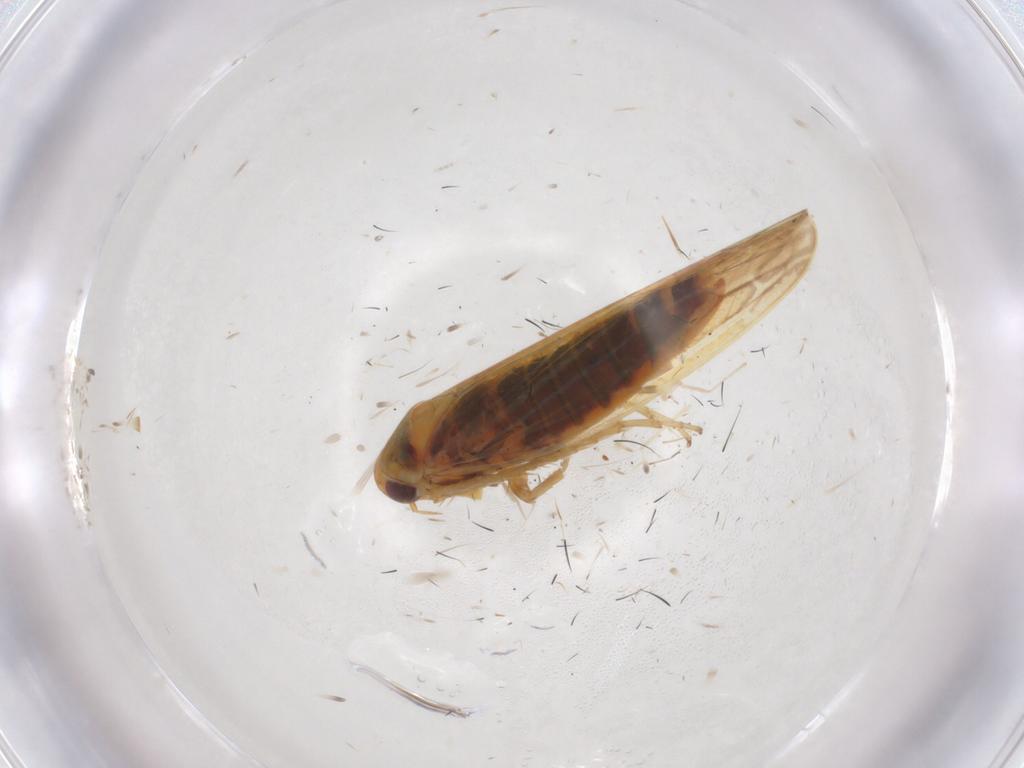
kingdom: Animalia
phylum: Arthropoda
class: Insecta
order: Hemiptera
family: Cicadellidae
